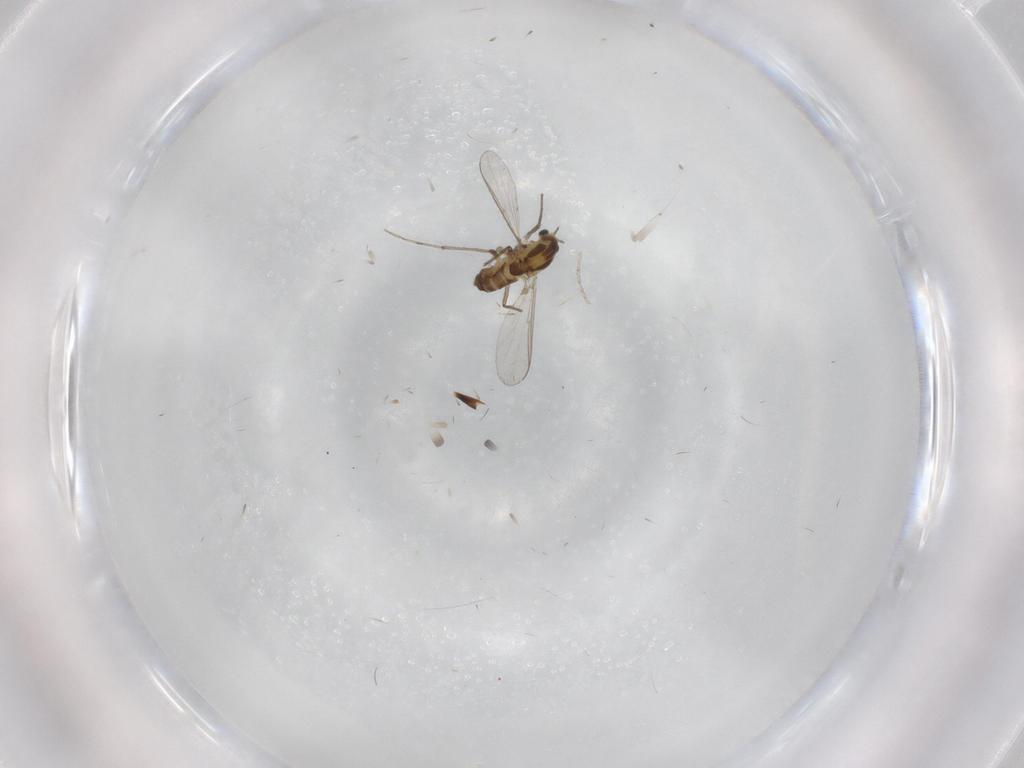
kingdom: Animalia
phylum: Arthropoda
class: Insecta
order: Diptera
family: Chironomidae
